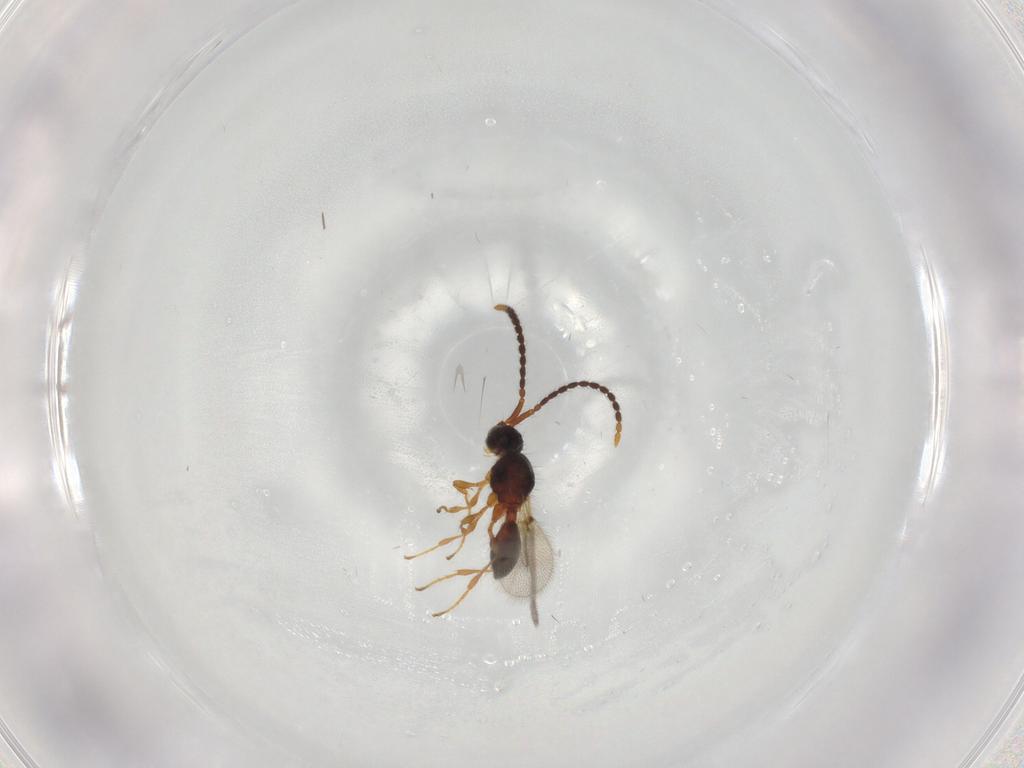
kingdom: Animalia
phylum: Arthropoda
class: Insecta
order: Hymenoptera
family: Diapriidae
